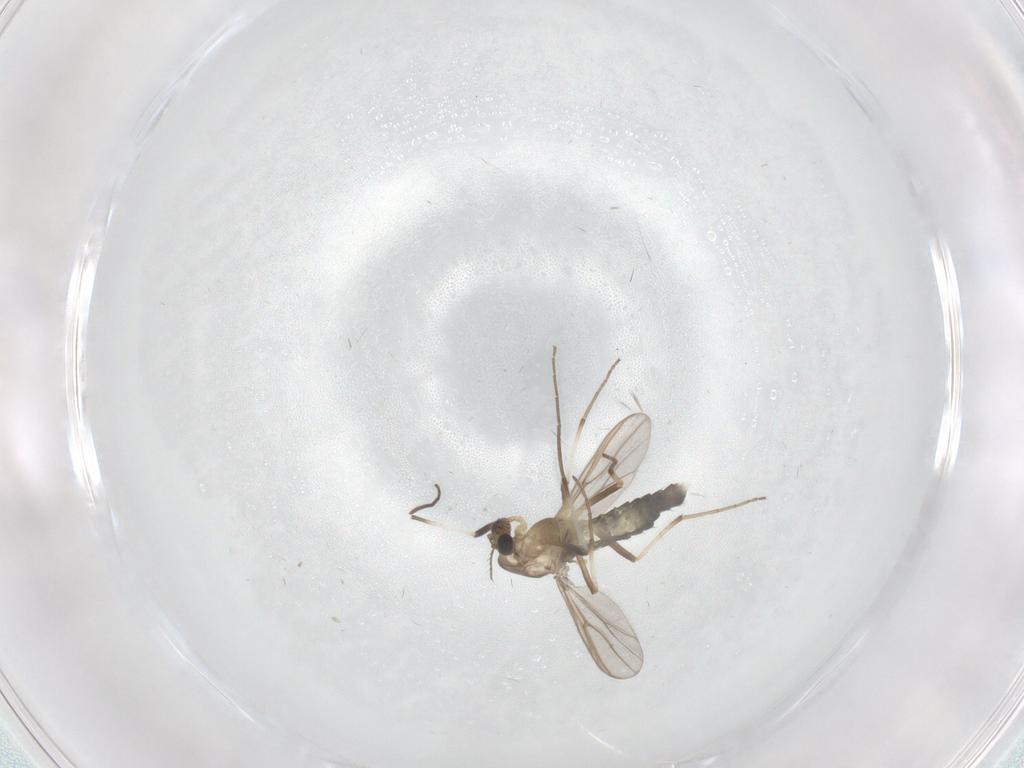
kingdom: Animalia
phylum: Arthropoda
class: Insecta
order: Diptera
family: Chironomidae
